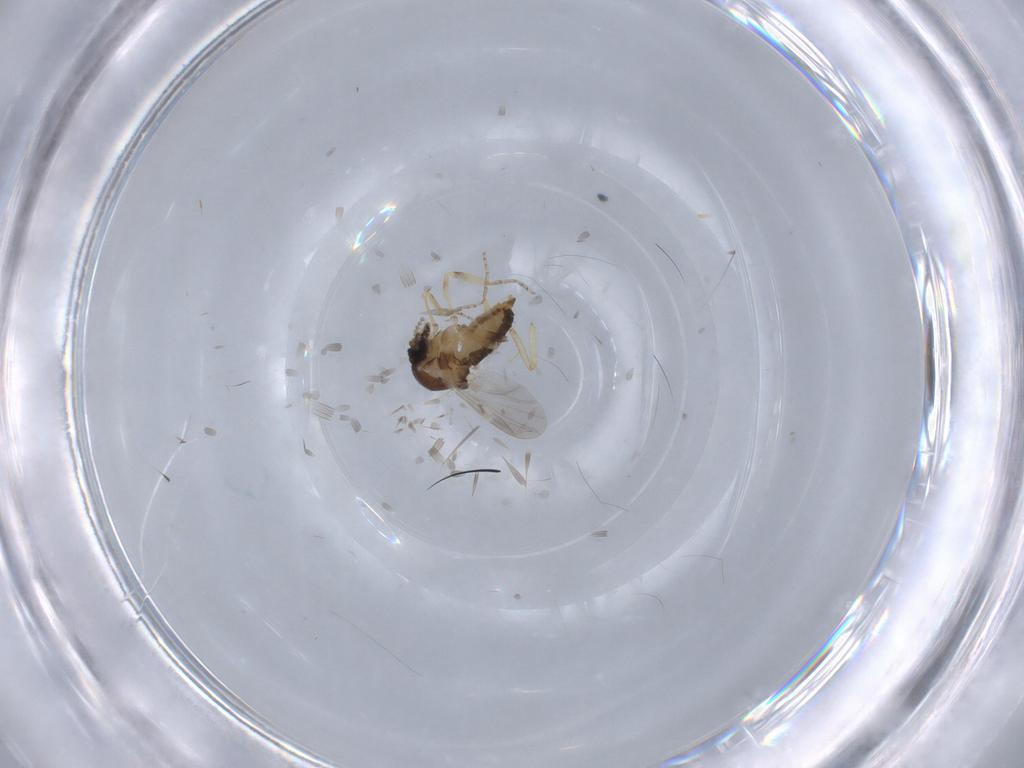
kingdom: Animalia
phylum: Arthropoda
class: Insecta
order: Diptera
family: Ceratopogonidae
